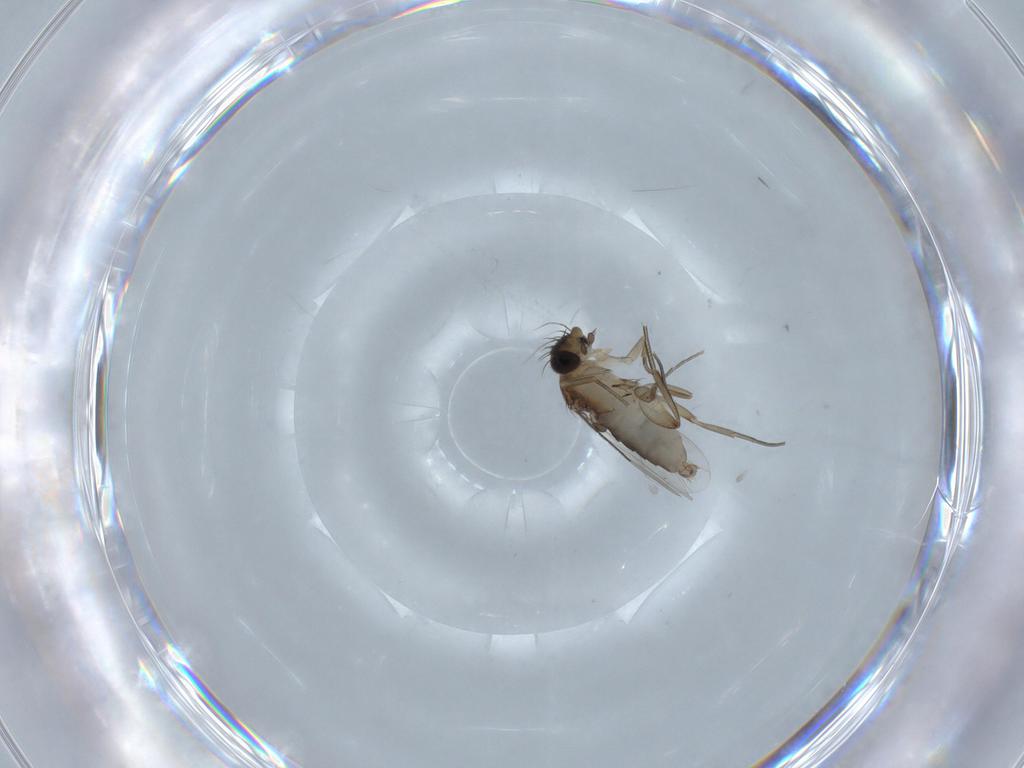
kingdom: Animalia
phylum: Arthropoda
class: Insecta
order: Diptera
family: Phoridae
